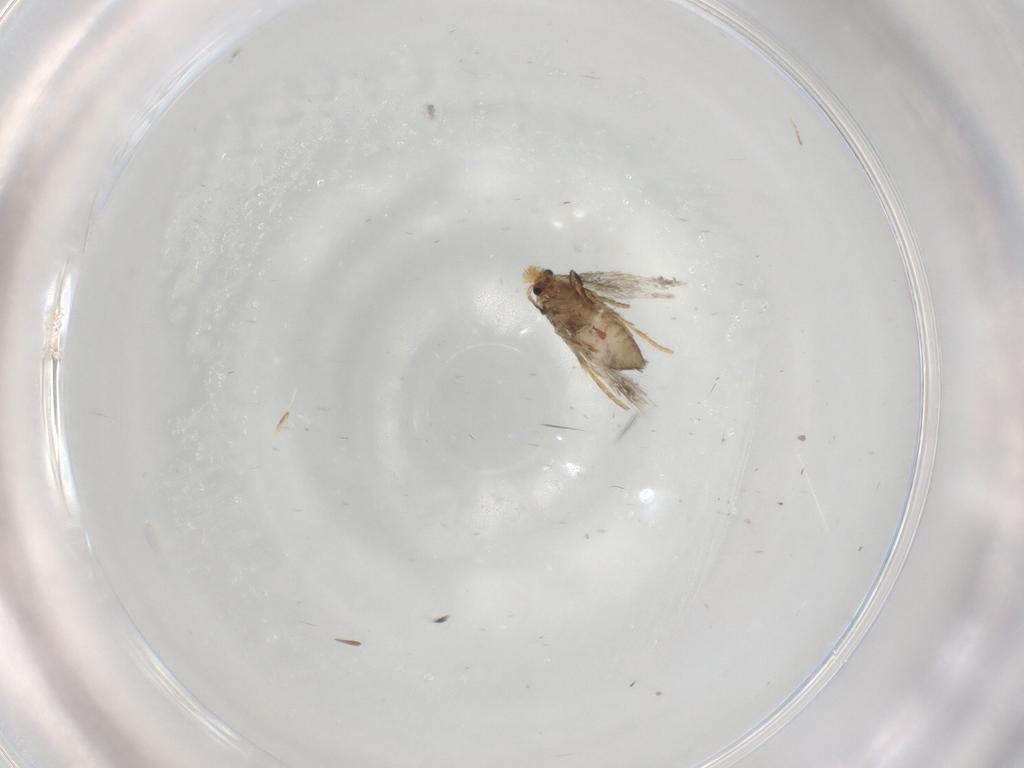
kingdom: Animalia
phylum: Arthropoda
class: Insecta
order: Lepidoptera
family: Nepticulidae
